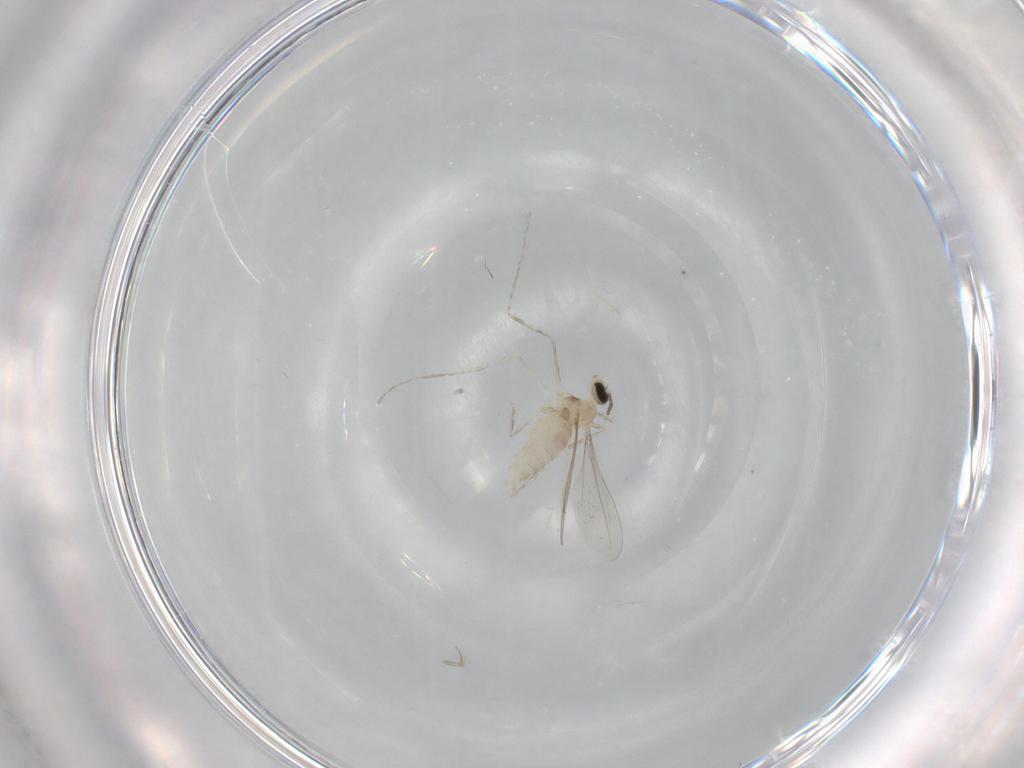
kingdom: Animalia
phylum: Arthropoda
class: Insecta
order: Diptera
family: Cecidomyiidae
